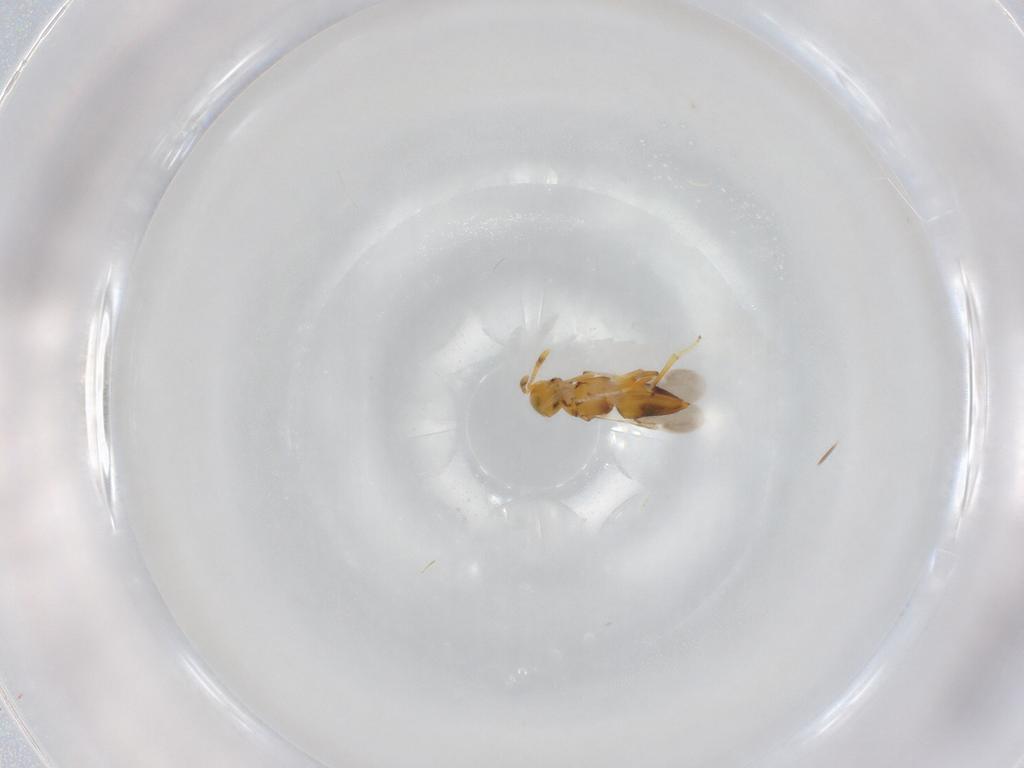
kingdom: Animalia
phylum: Arthropoda
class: Insecta
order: Hymenoptera
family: Encyrtidae
